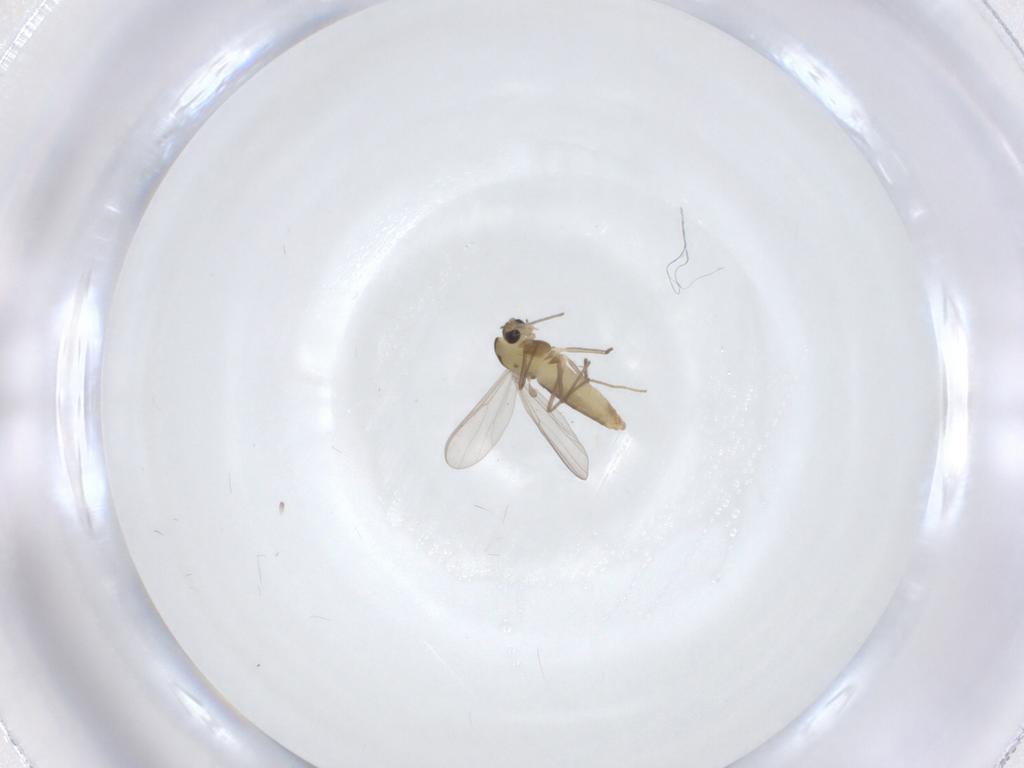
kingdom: Animalia
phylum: Arthropoda
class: Insecta
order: Diptera
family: Chironomidae
